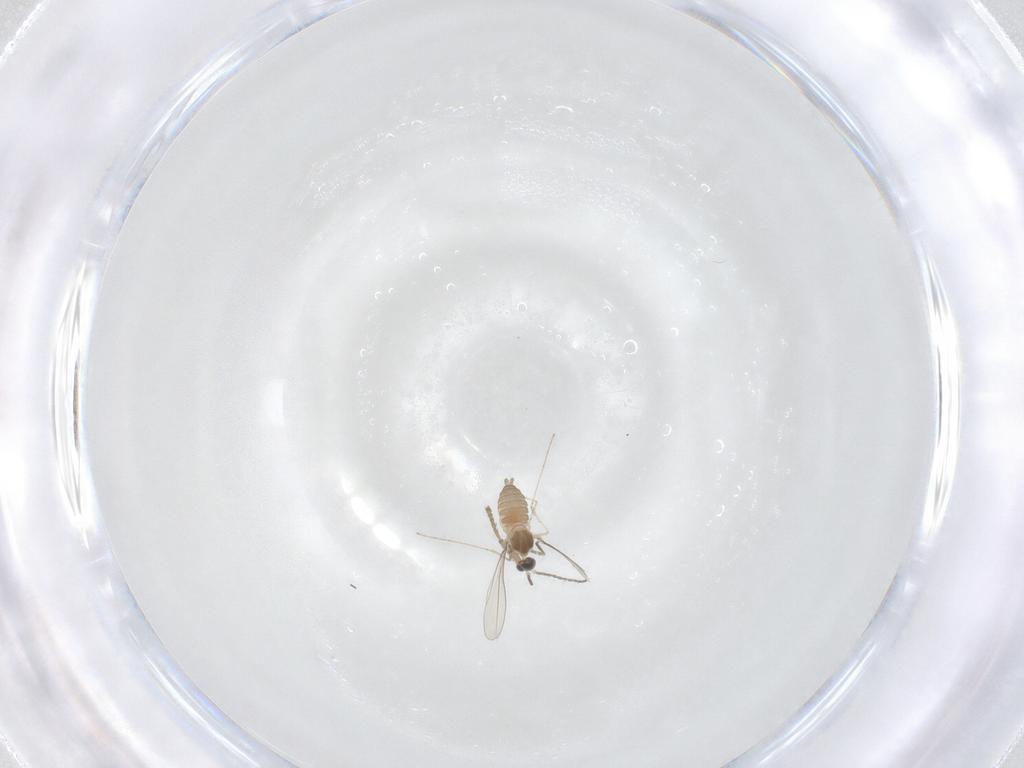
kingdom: Animalia
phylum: Arthropoda
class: Insecta
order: Diptera
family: Cecidomyiidae
